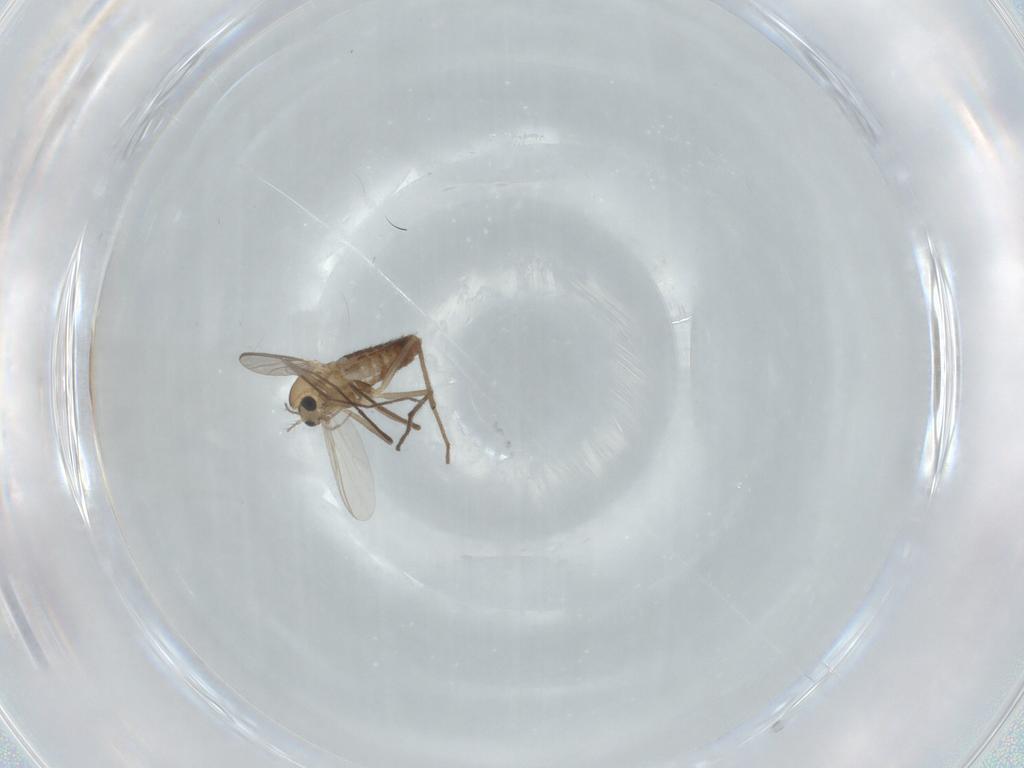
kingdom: Animalia
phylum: Arthropoda
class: Insecta
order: Diptera
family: Chironomidae
